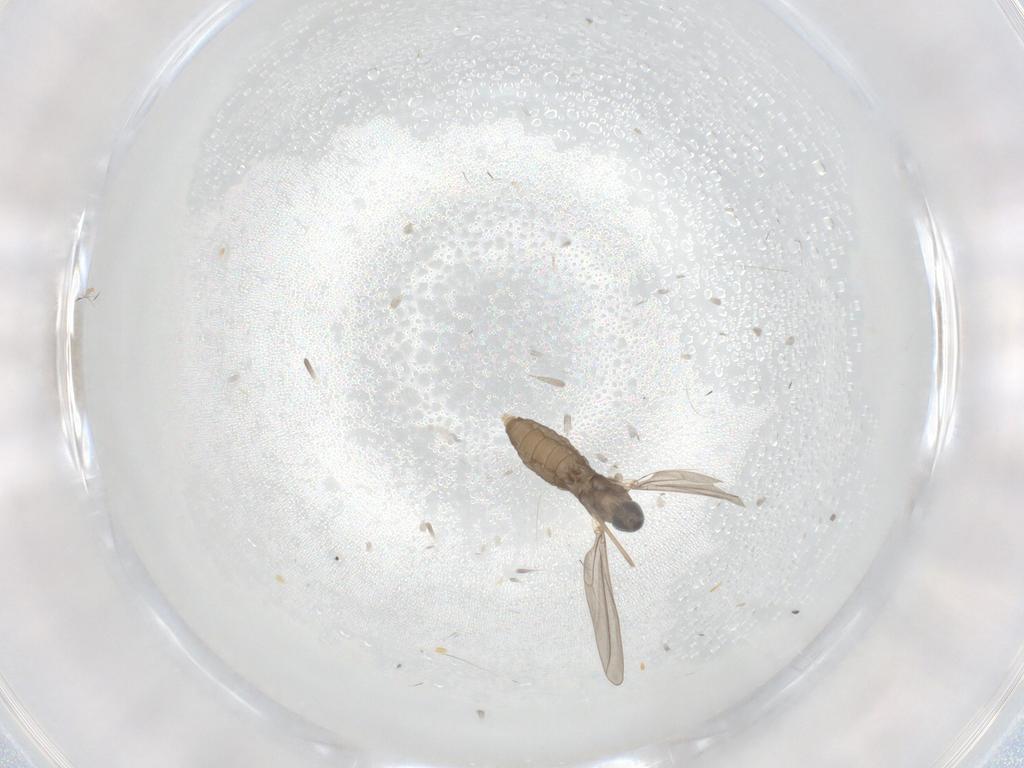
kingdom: Animalia
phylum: Arthropoda
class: Insecta
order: Diptera
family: Cecidomyiidae
